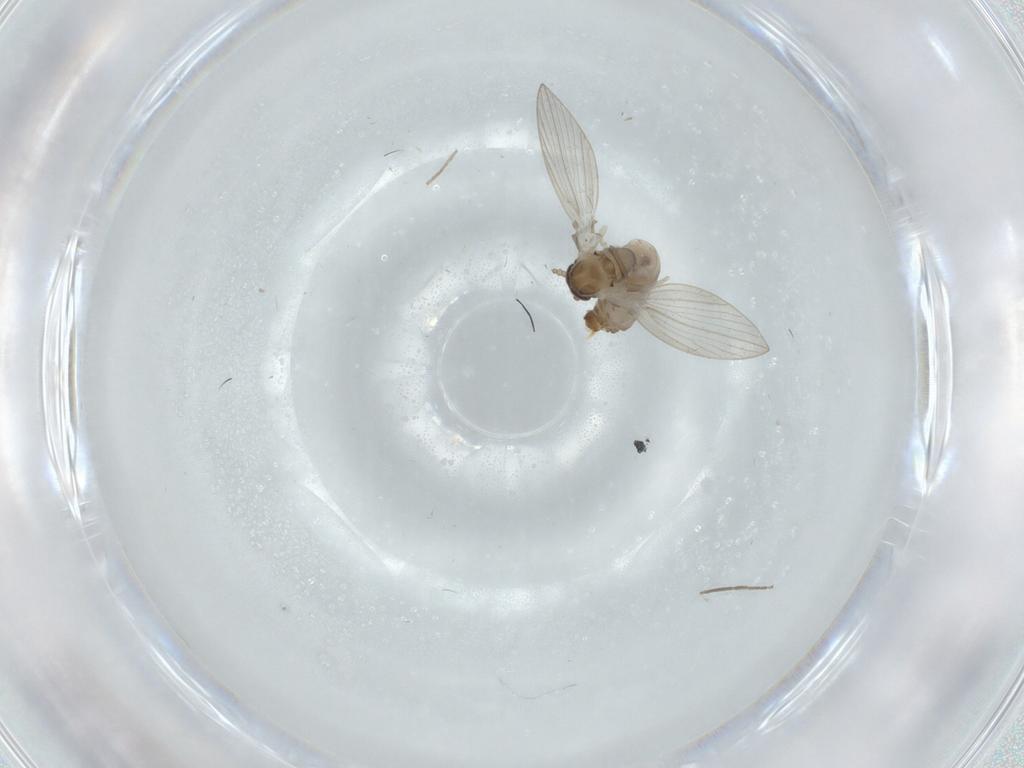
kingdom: Animalia
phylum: Arthropoda
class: Insecta
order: Diptera
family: Psychodidae
